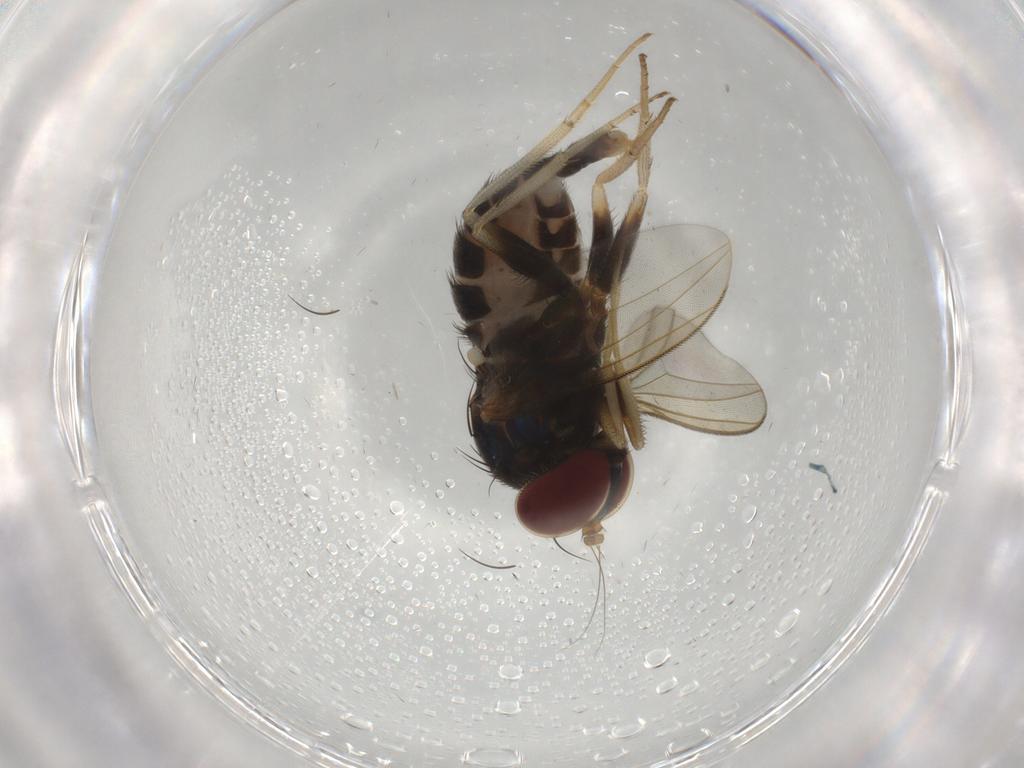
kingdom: Animalia
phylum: Arthropoda
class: Insecta
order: Diptera
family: Dolichopodidae
